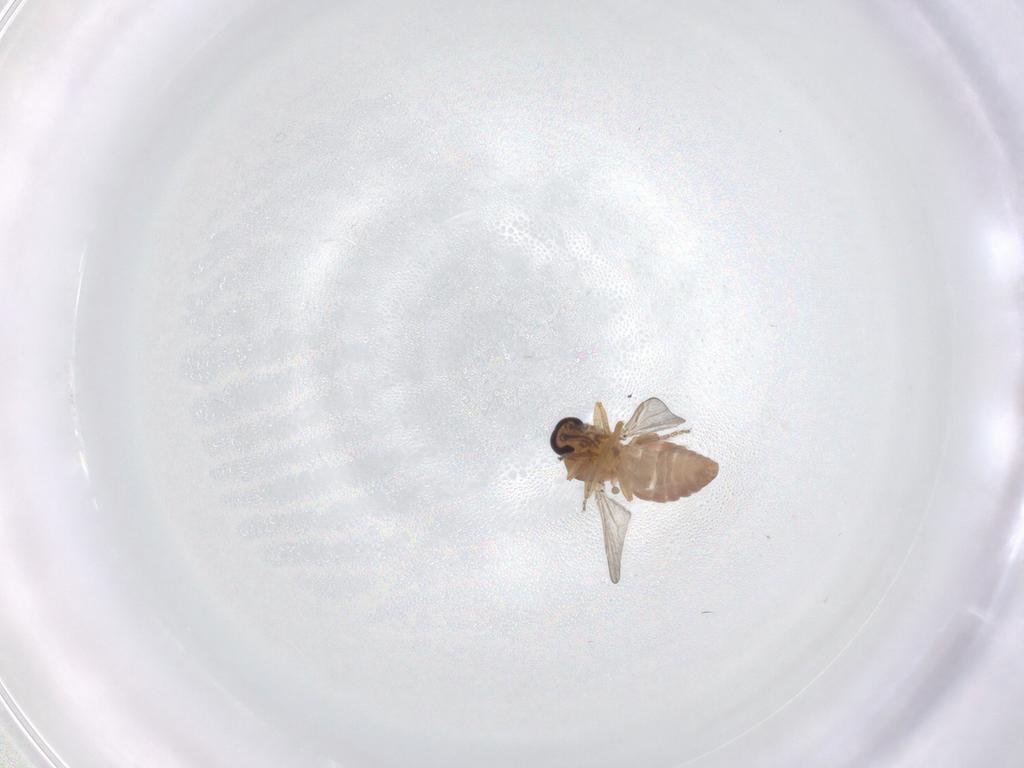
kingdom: Animalia
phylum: Arthropoda
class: Insecta
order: Diptera
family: Ceratopogonidae
